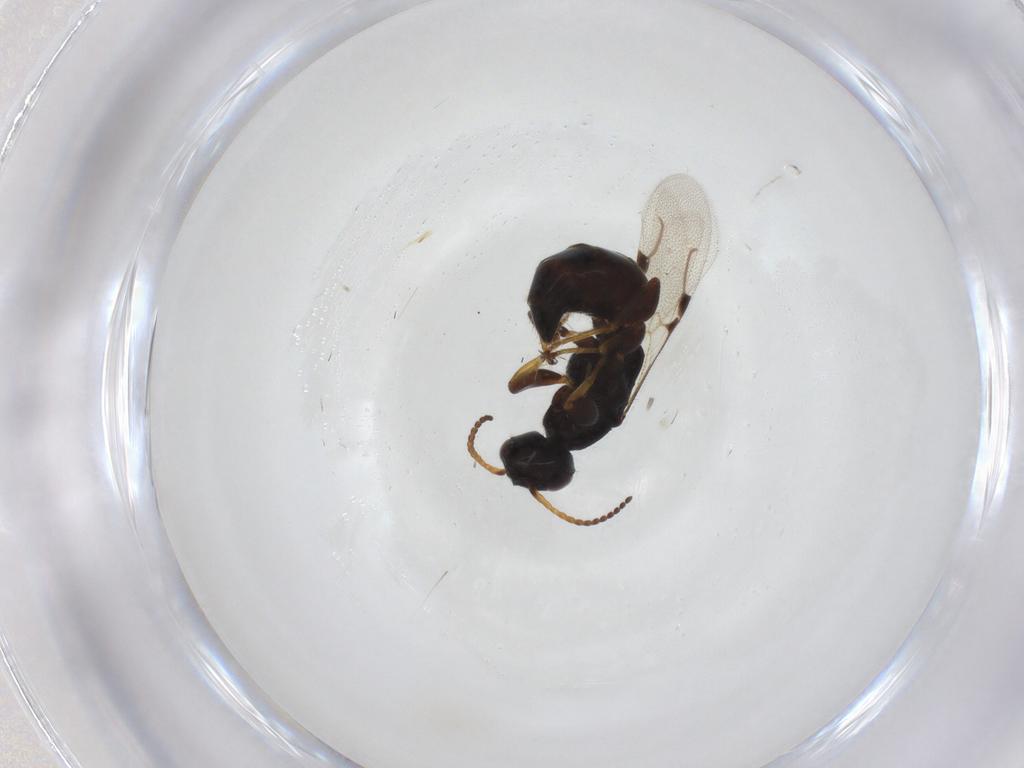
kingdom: Animalia
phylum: Arthropoda
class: Insecta
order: Hymenoptera
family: Bethylidae
